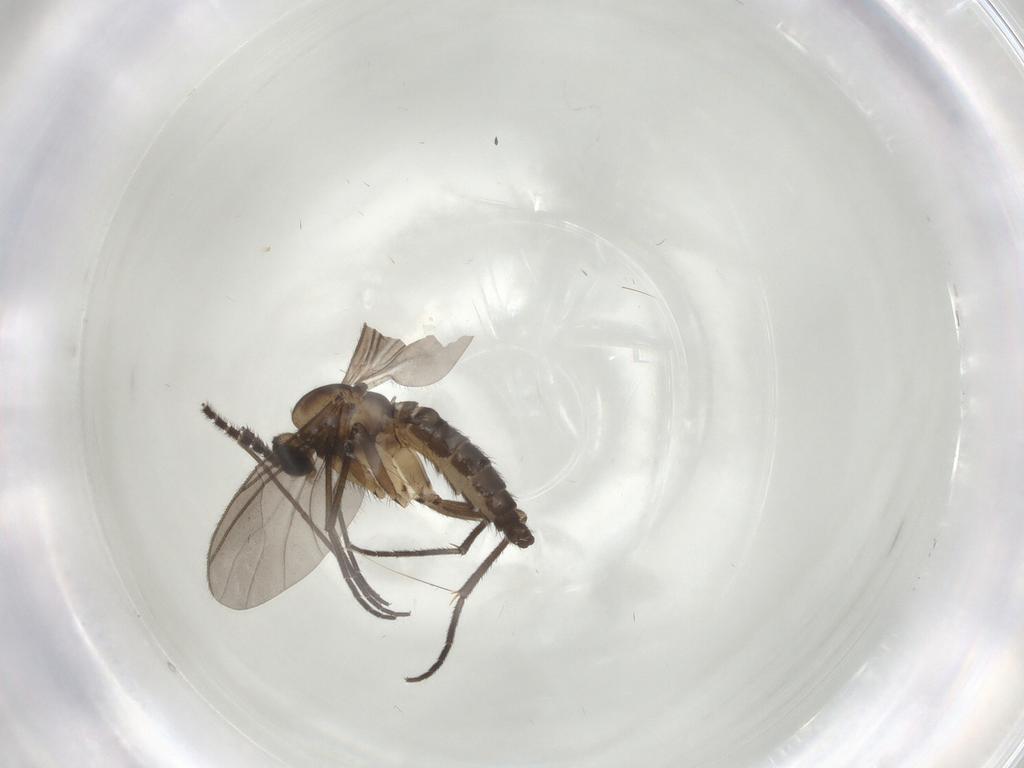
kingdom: Animalia
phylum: Arthropoda
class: Insecta
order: Diptera
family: Sciaridae
